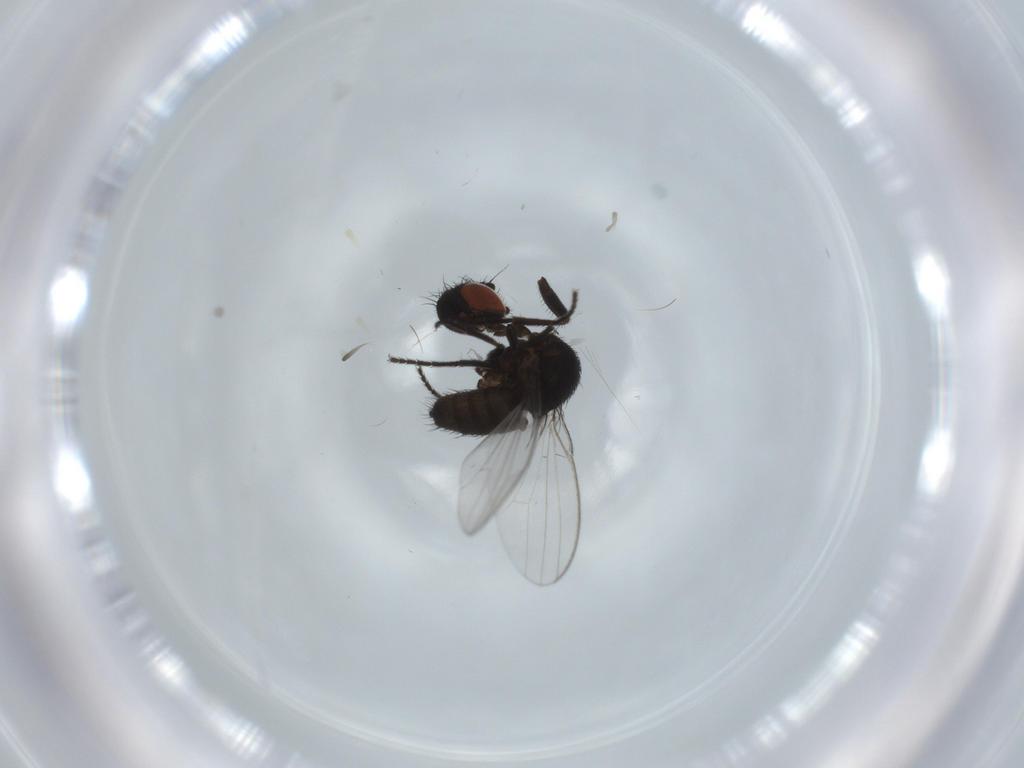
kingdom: Animalia
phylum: Arthropoda
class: Insecta
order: Diptera
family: Milichiidae
